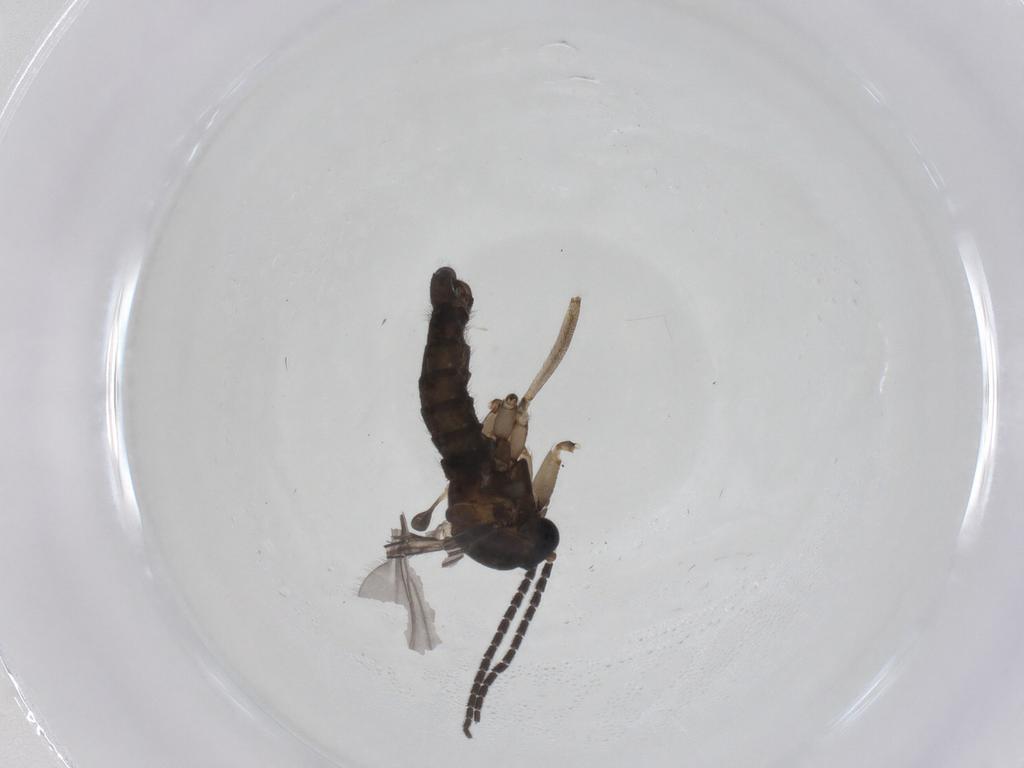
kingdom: Animalia
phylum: Arthropoda
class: Insecta
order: Diptera
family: Sciaridae
